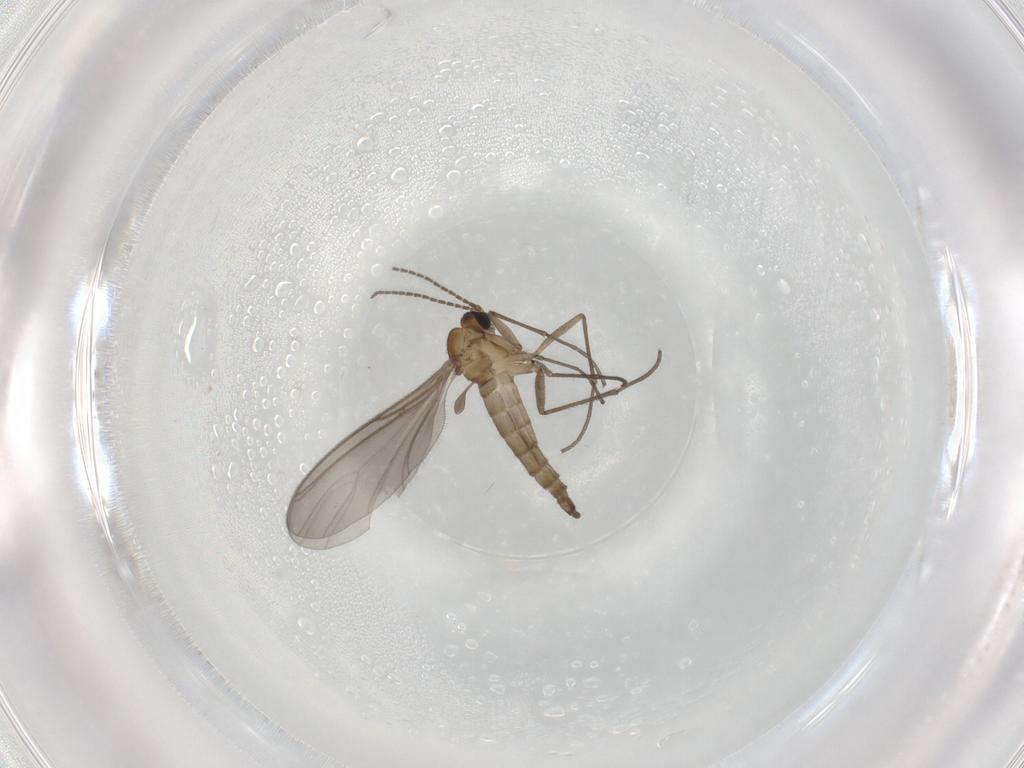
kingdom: Animalia
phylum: Arthropoda
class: Insecta
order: Diptera
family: Sciaridae
